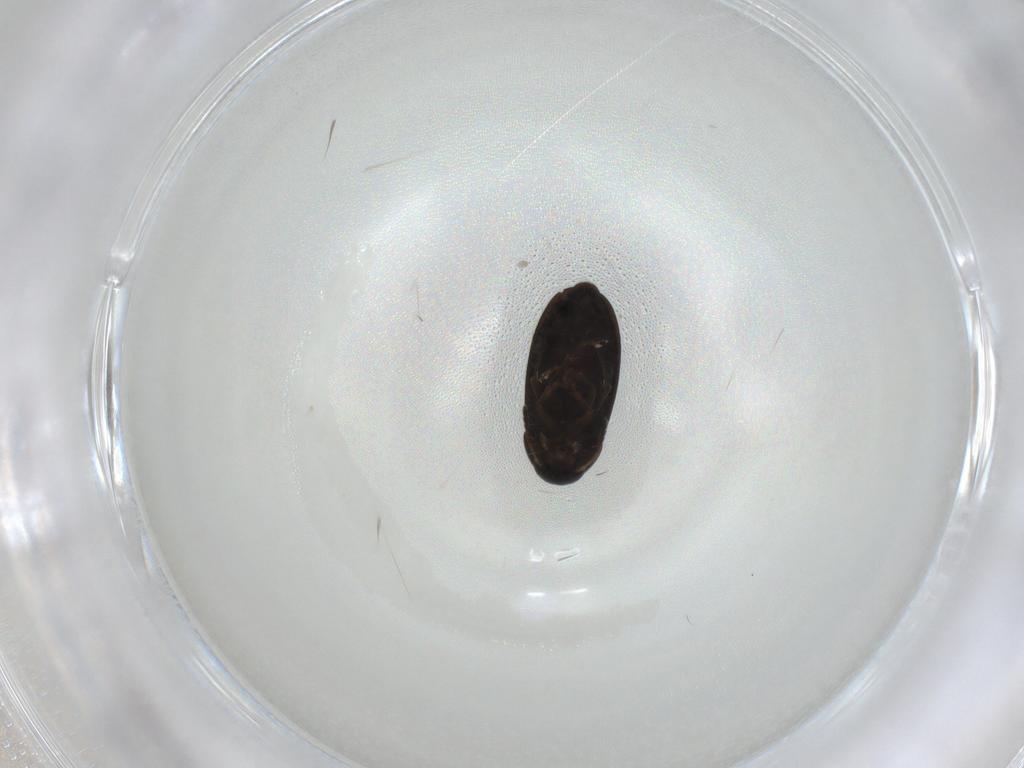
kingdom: Animalia
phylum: Arthropoda
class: Insecta
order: Coleoptera
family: Scraptiidae
